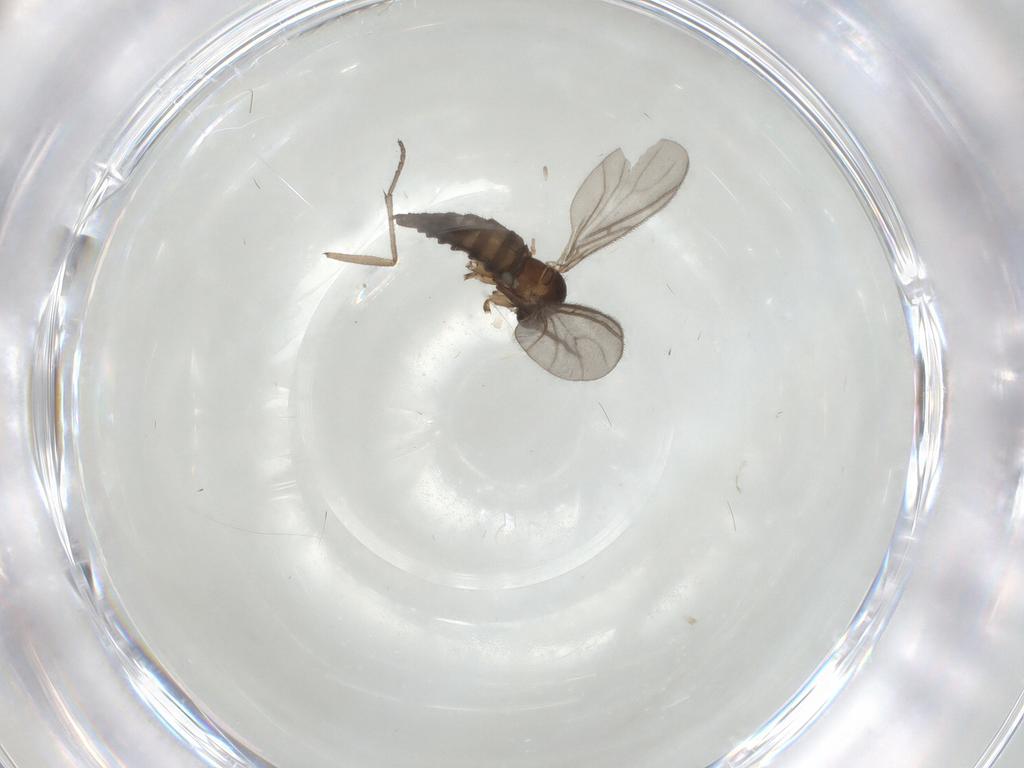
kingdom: Animalia
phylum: Arthropoda
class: Insecta
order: Diptera
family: Sciaridae
